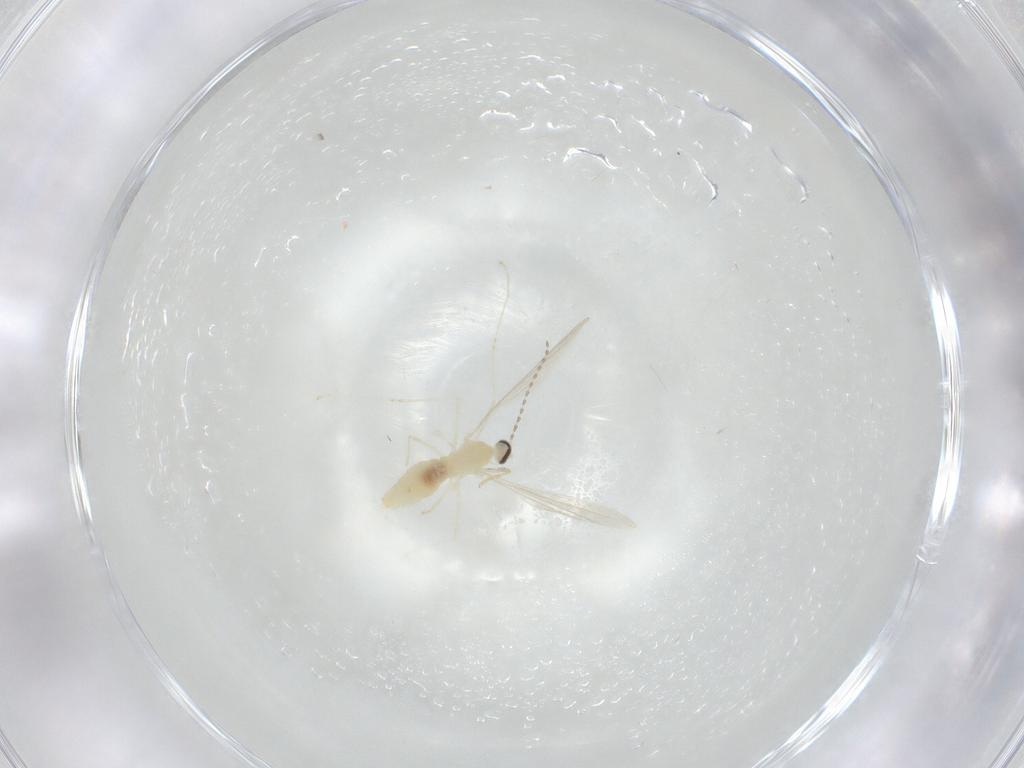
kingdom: Animalia
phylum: Arthropoda
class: Insecta
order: Diptera
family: Cecidomyiidae
